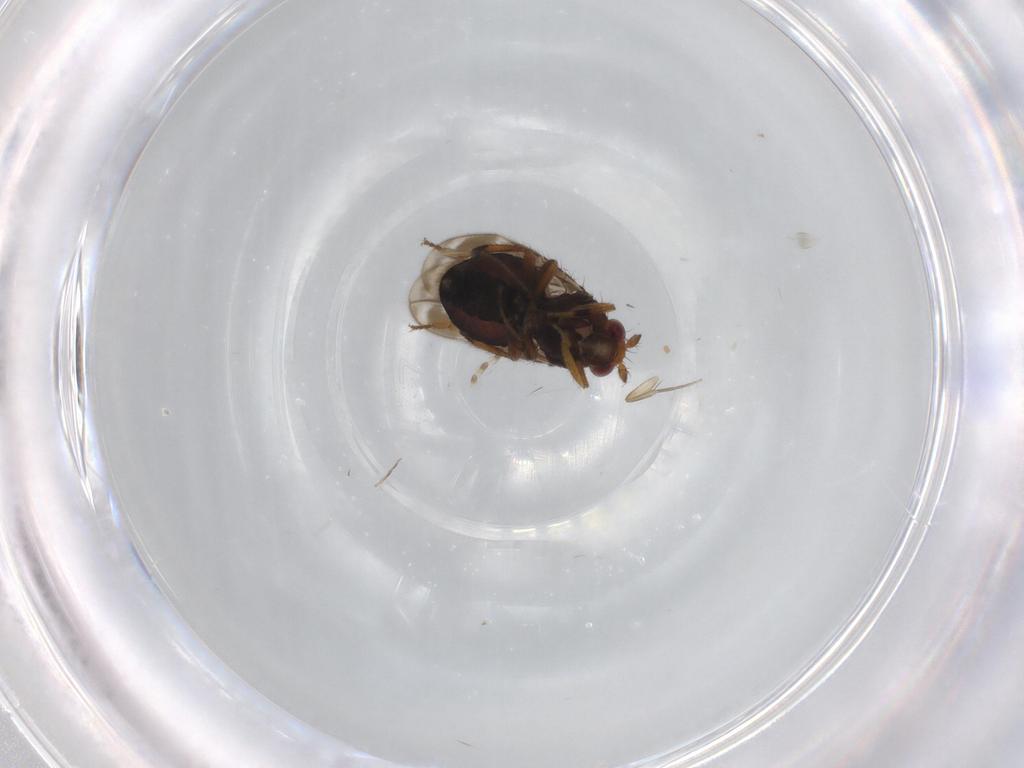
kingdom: Animalia
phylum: Arthropoda
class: Insecta
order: Diptera
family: Sphaeroceridae
